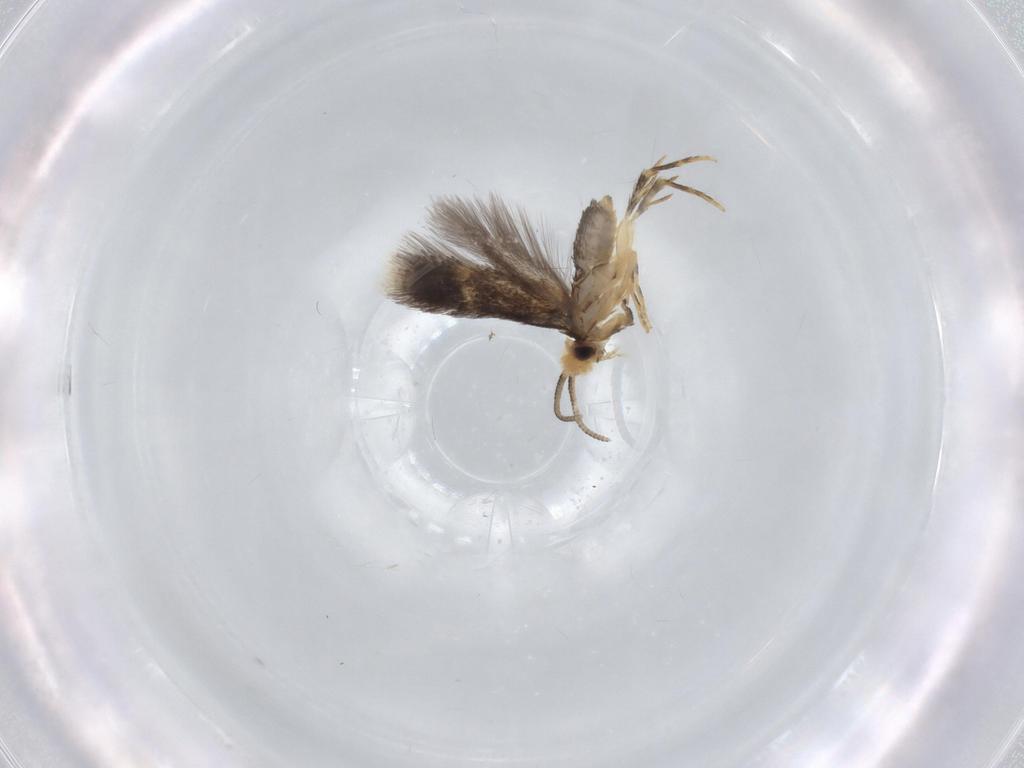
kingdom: Animalia
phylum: Arthropoda
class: Insecta
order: Lepidoptera
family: Nepticulidae
